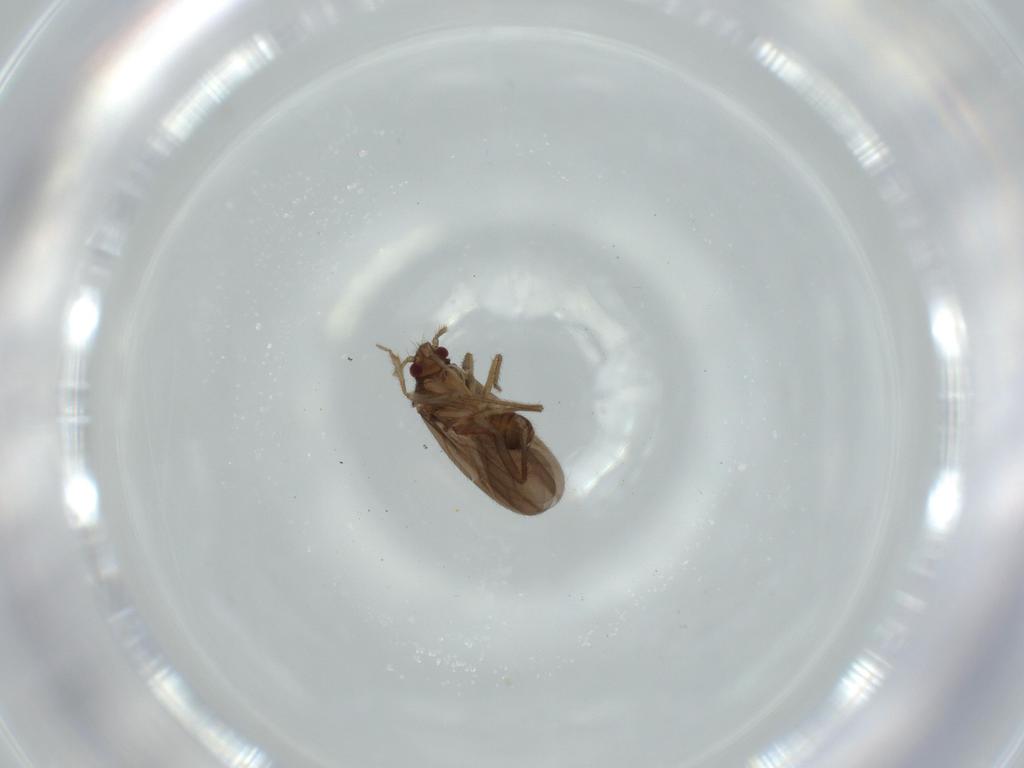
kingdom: Animalia
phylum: Arthropoda
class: Insecta
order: Hemiptera
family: Ceratocombidae
